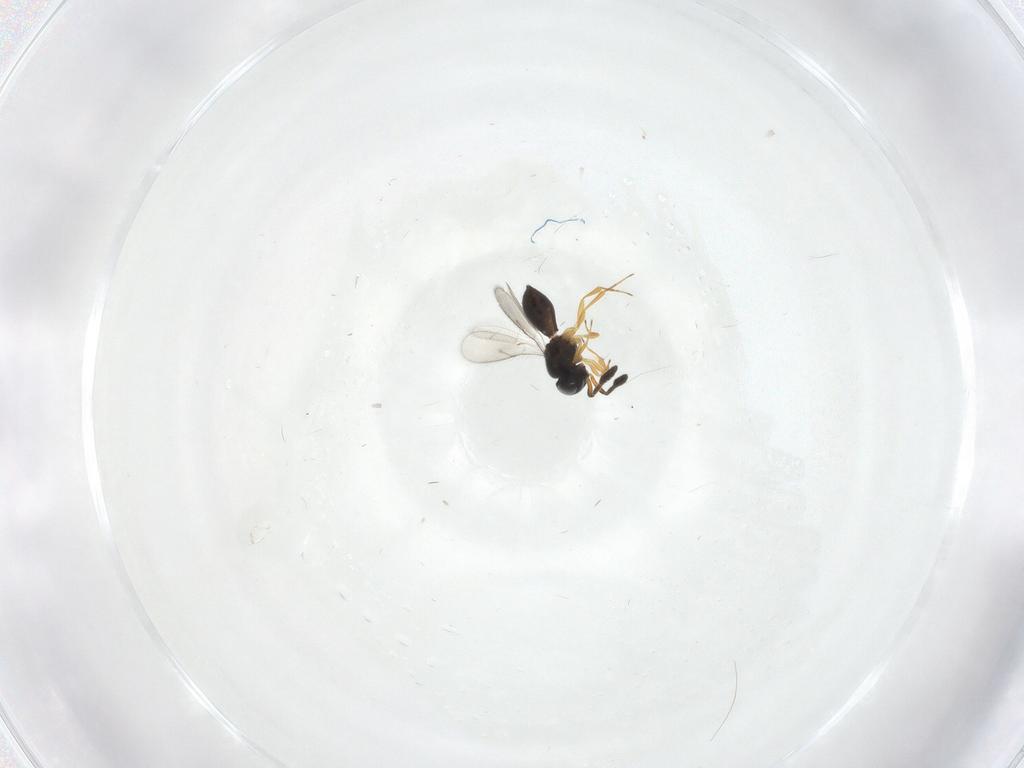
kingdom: Animalia
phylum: Arthropoda
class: Insecta
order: Hymenoptera
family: Scelionidae
